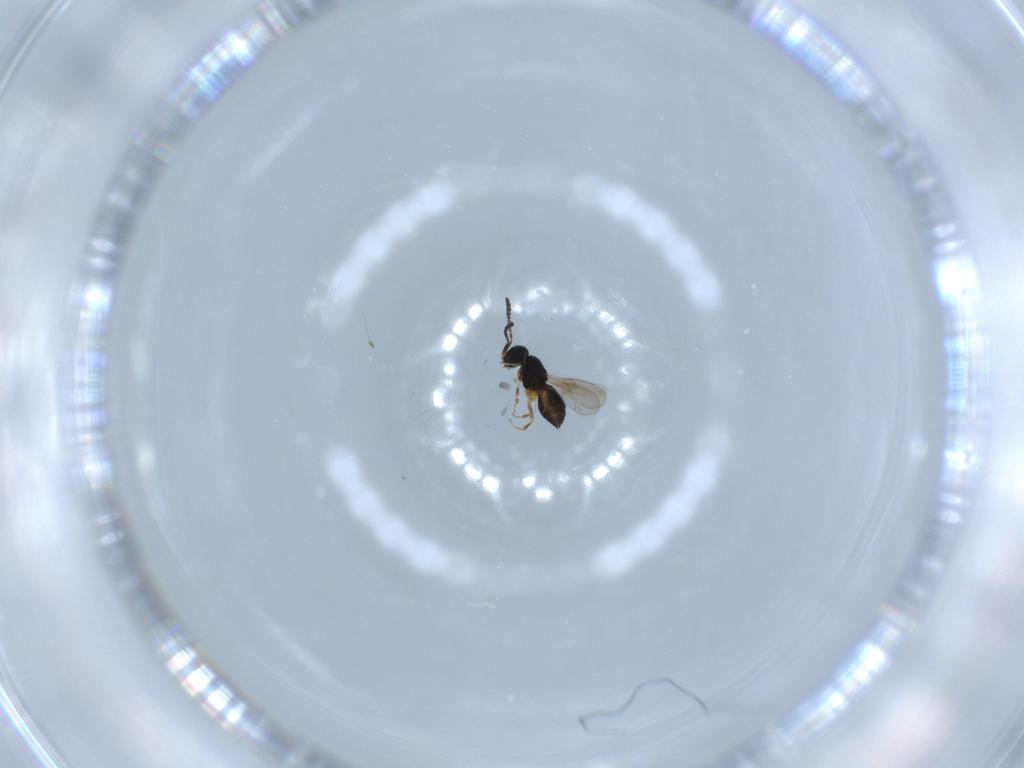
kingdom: Animalia
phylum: Arthropoda
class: Insecta
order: Hymenoptera
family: Scelionidae
